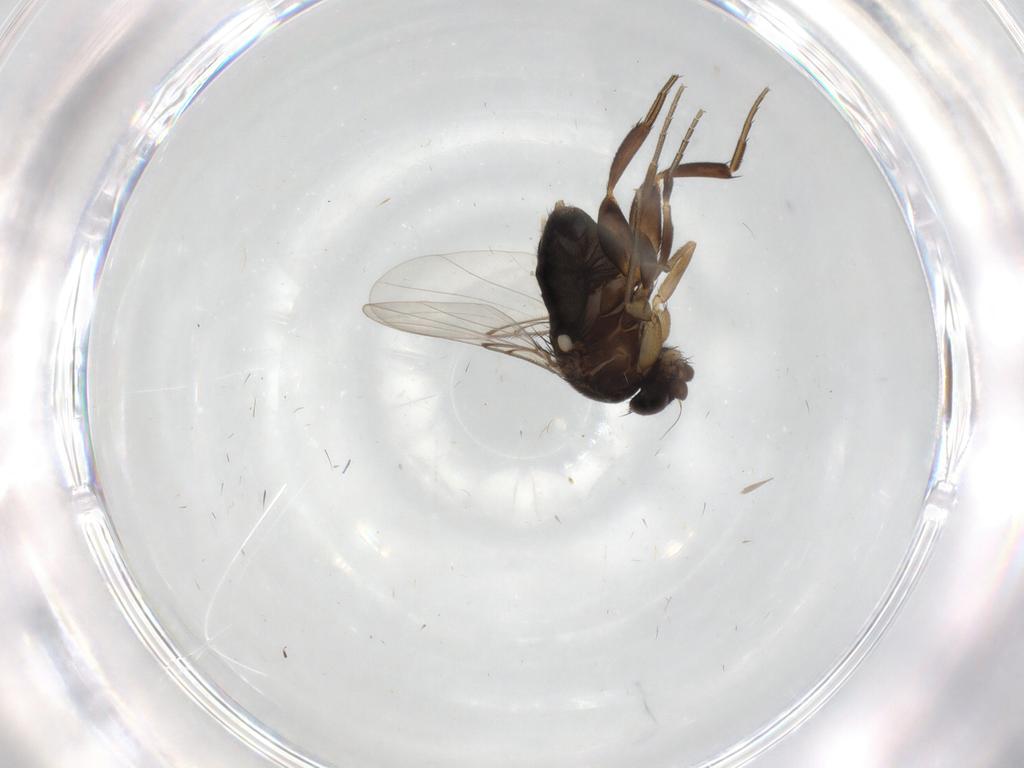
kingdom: Animalia
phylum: Arthropoda
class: Insecta
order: Diptera
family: Phoridae
